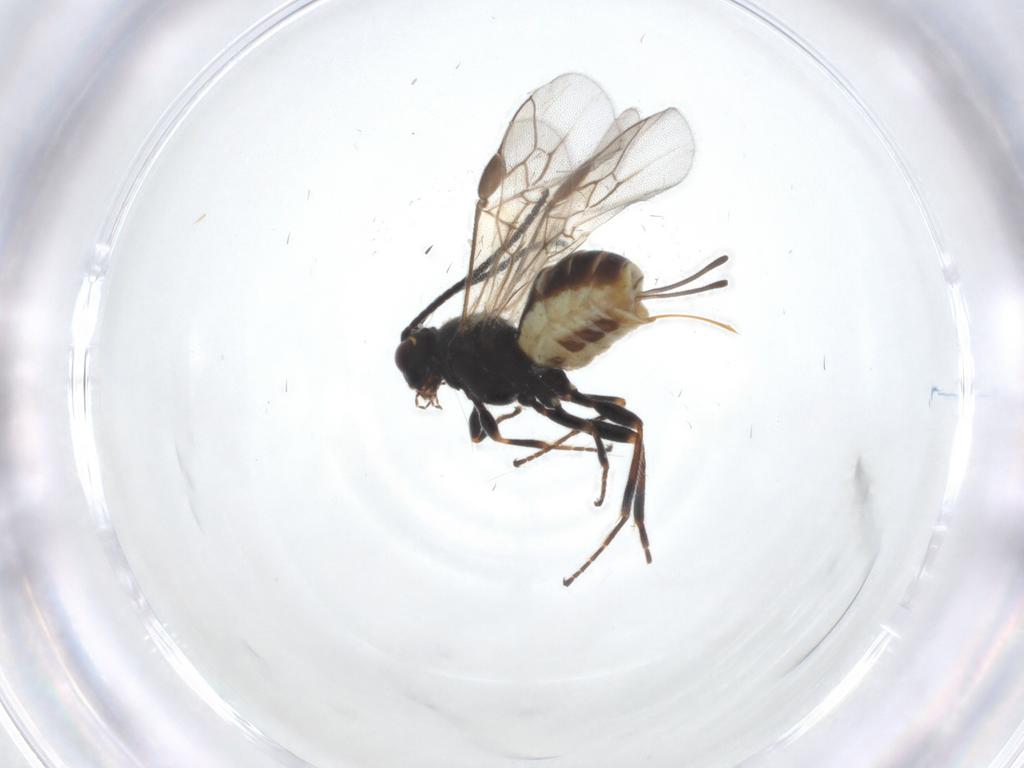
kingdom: Animalia
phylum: Arthropoda
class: Insecta
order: Hymenoptera
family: Braconidae
